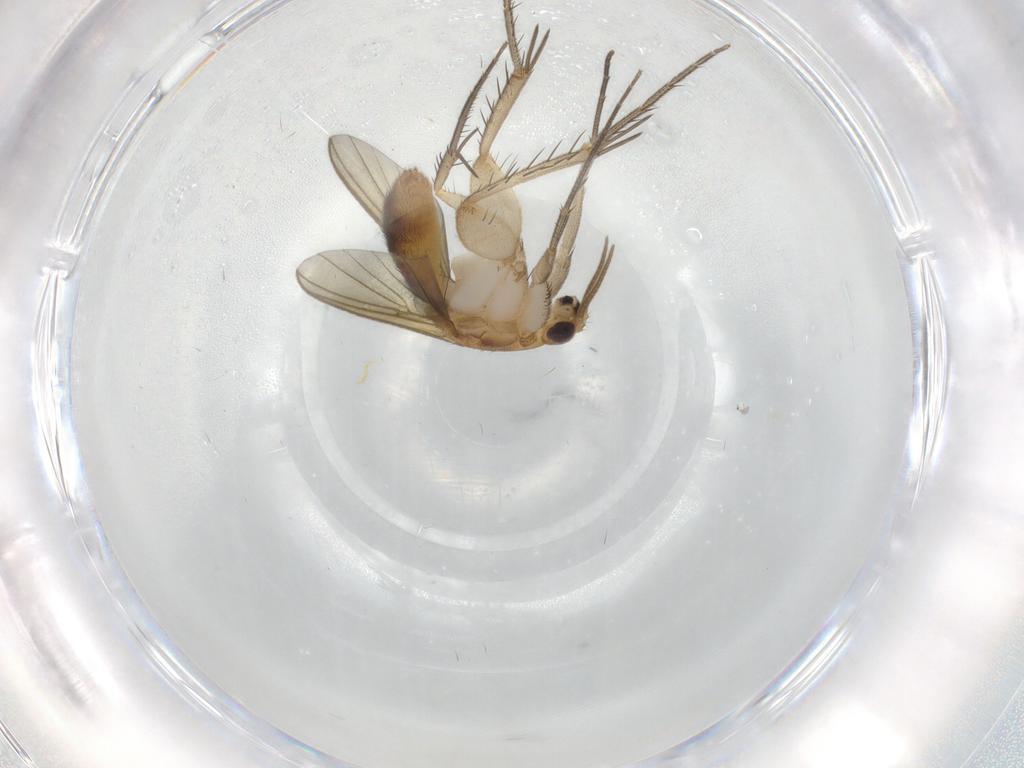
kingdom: Animalia
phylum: Arthropoda
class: Insecta
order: Diptera
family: Mycetophilidae
